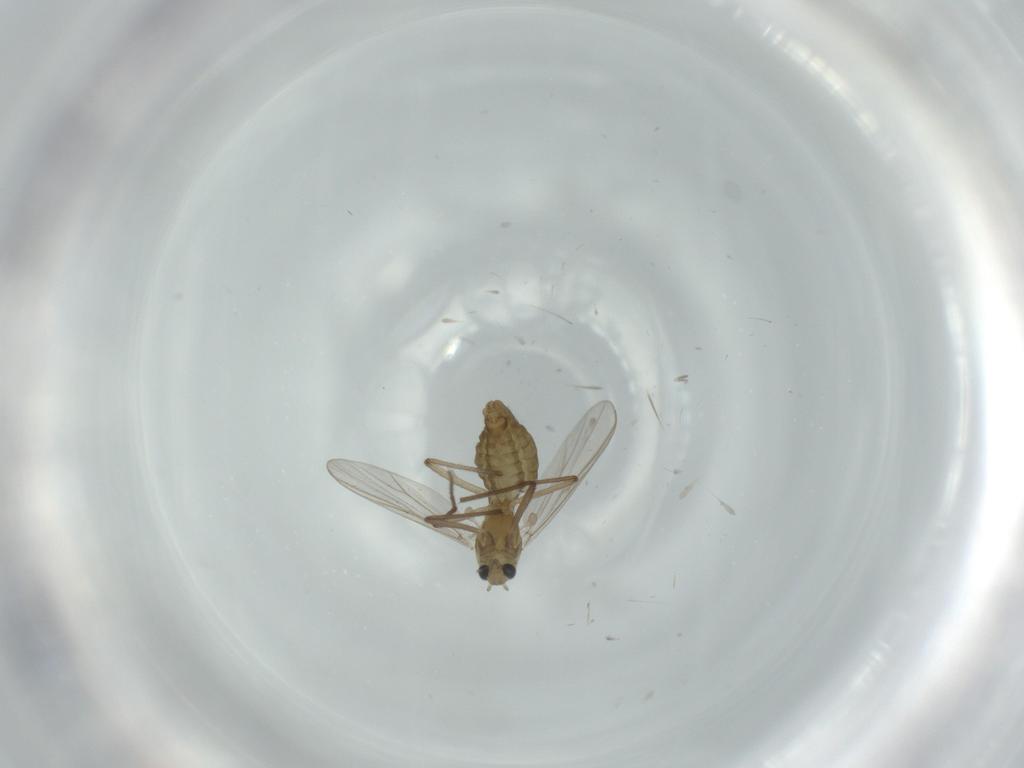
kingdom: Animalia
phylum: Arthropoda
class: Insecta
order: Diptera
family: Chironomidae
